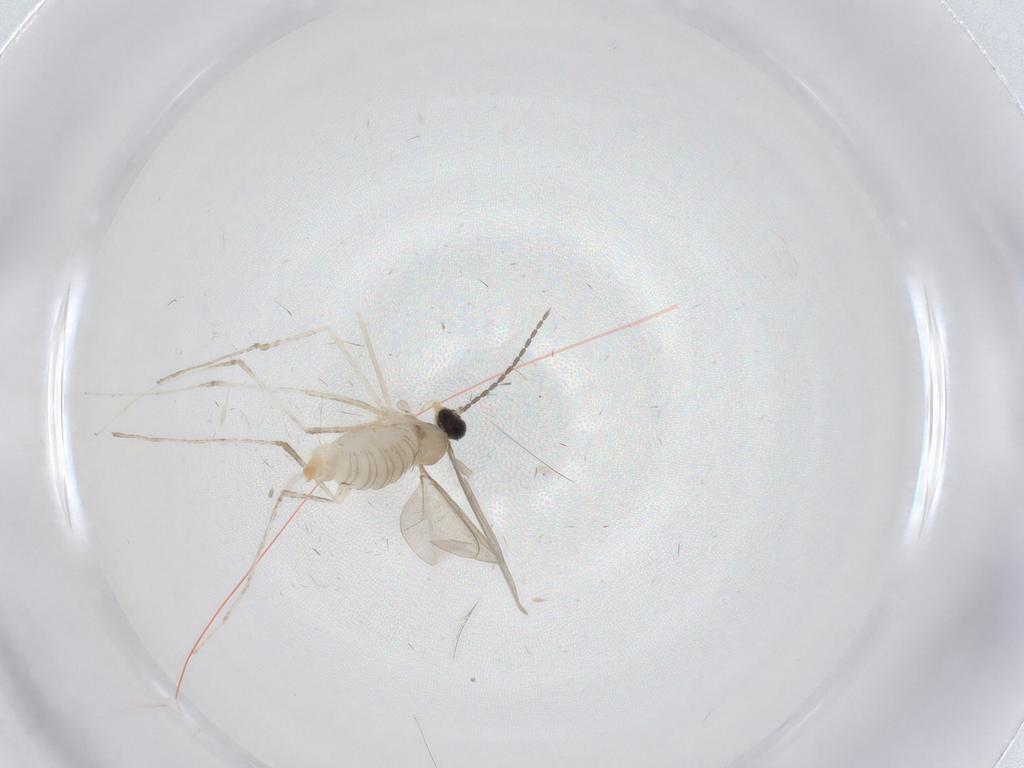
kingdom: Animalia
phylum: Arthropoda
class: Insecta
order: Diptera
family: Cecidomyiidae
